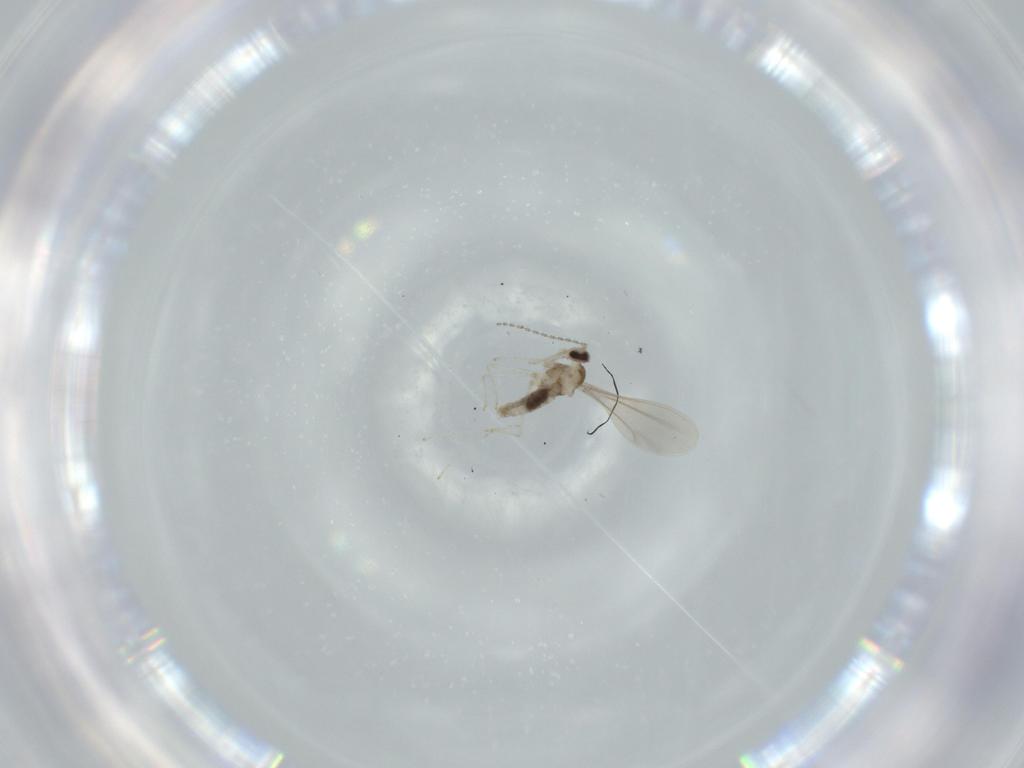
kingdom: Animalia
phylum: Arthropoda
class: Insecta
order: Diptera
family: Cecidomyiidae
